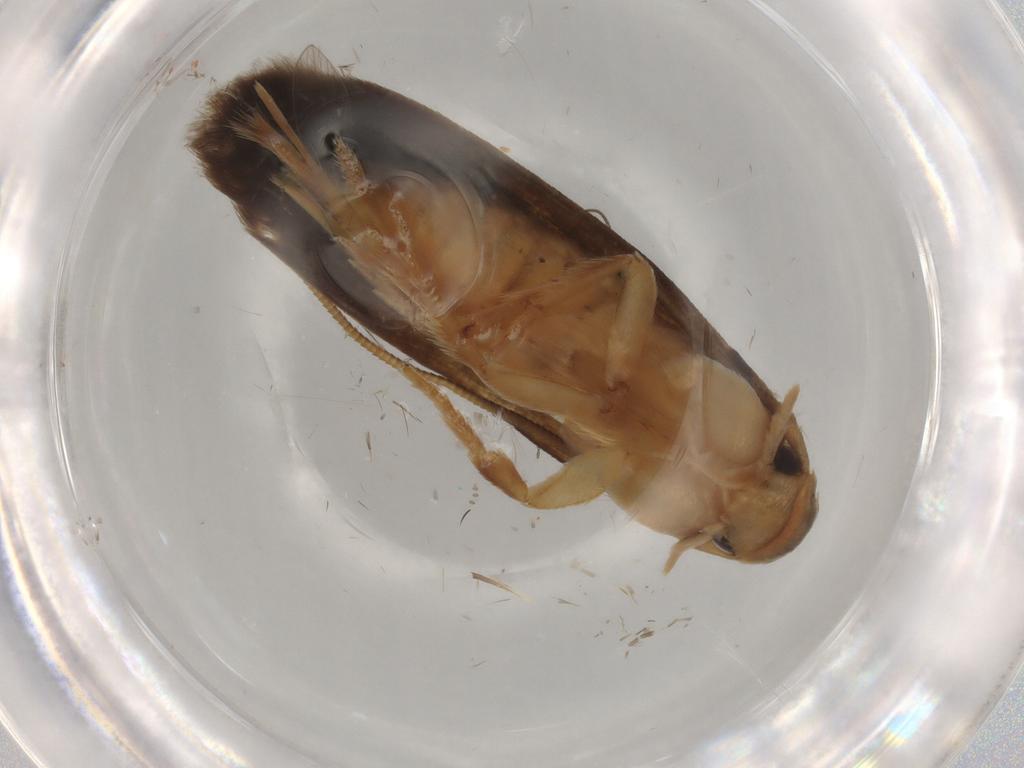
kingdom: Animalia
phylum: Arthropoda
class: Insecta
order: Lepidoptera
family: Tineidae
